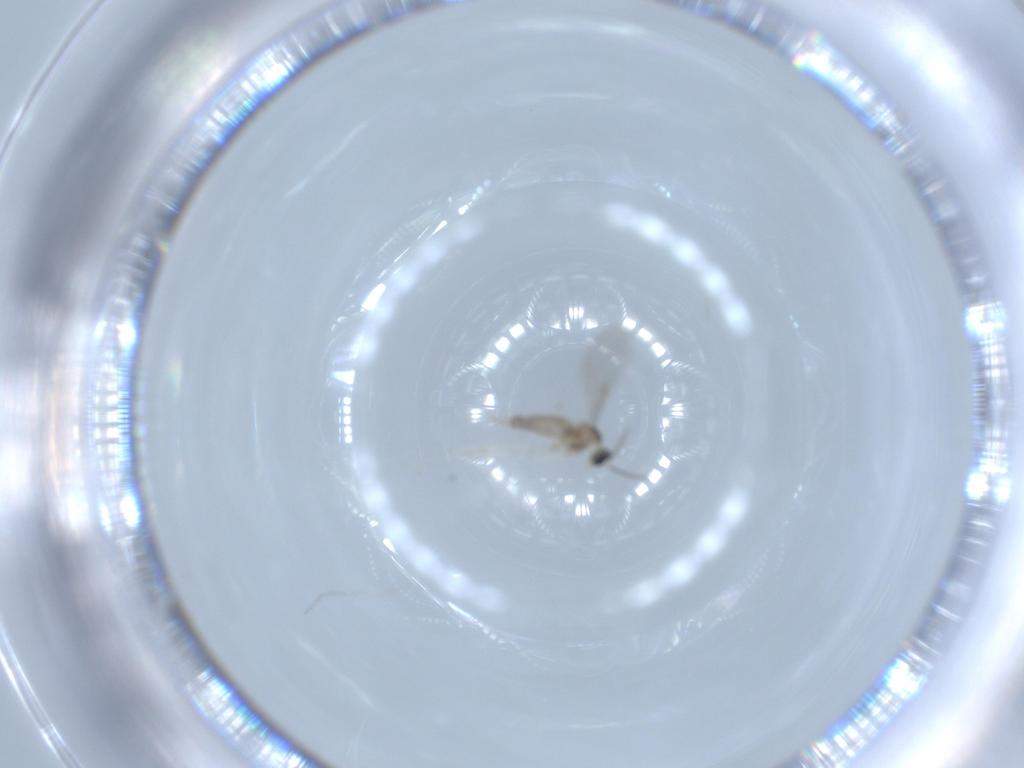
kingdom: Animalia
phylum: Arthropoda
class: Insecta
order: Diptera
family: Cecidomyiidae
